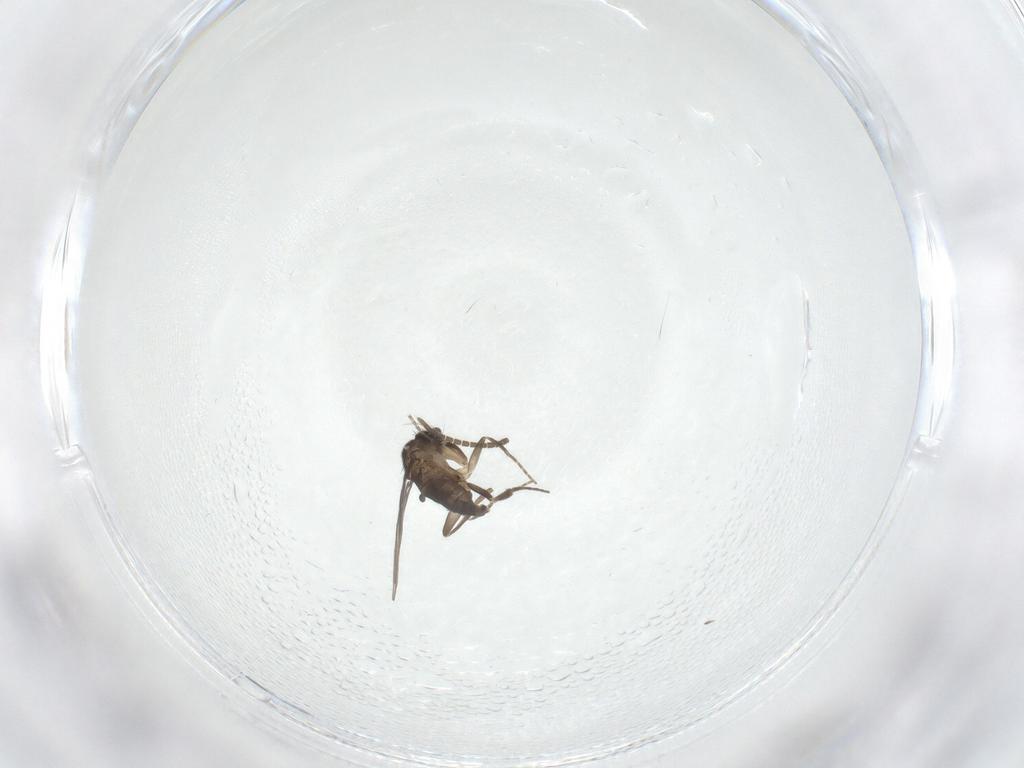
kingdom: Animalia
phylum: Arthropoda
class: Insecta
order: Diptera
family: Phoridae
